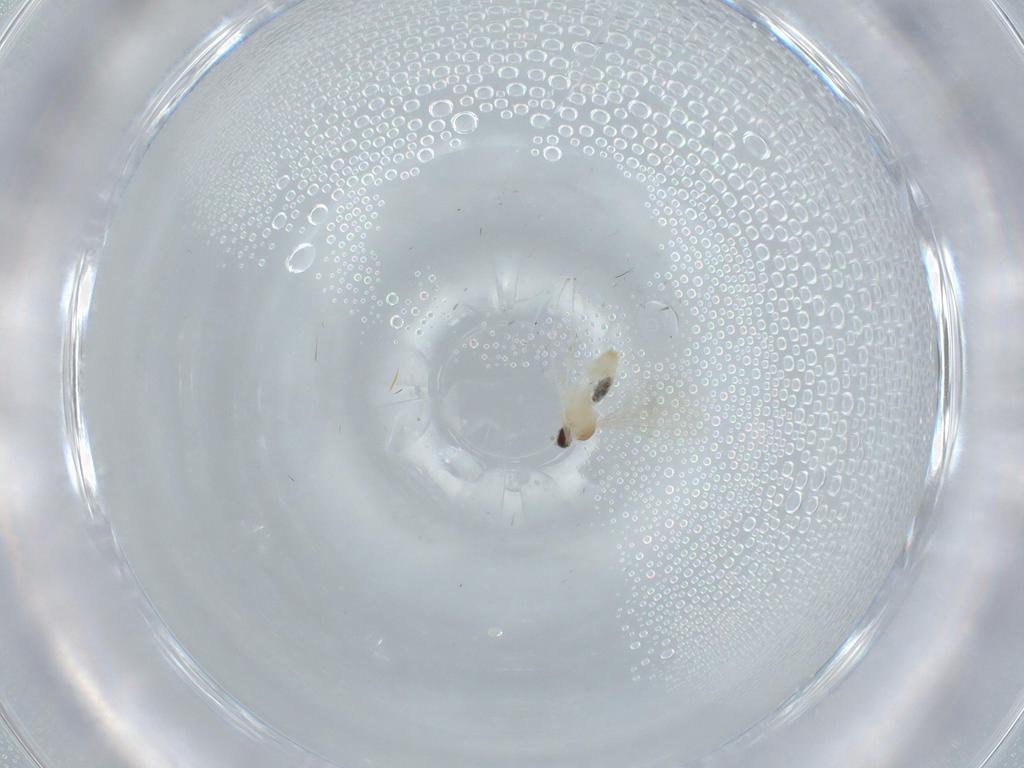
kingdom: Animalia
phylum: Arthropoda
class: Insecta
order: Diptera
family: Cecidomyiidae
